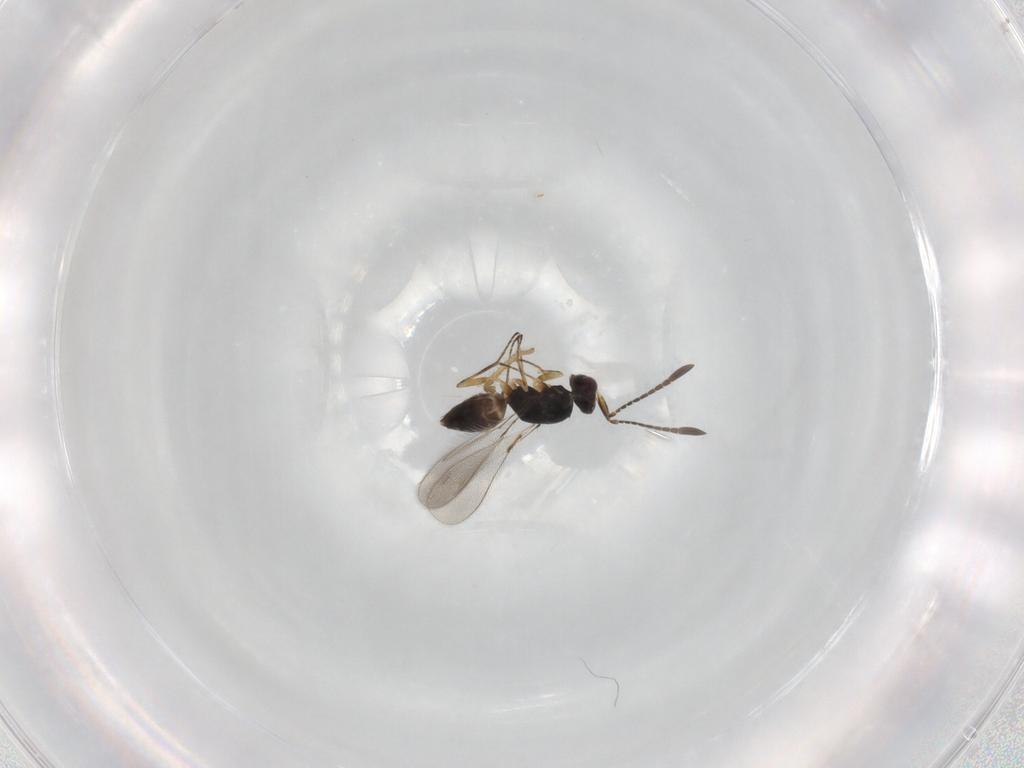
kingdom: Animalia
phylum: Arthropoda
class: Insecta
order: Hymenoptera
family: Mymaridae
